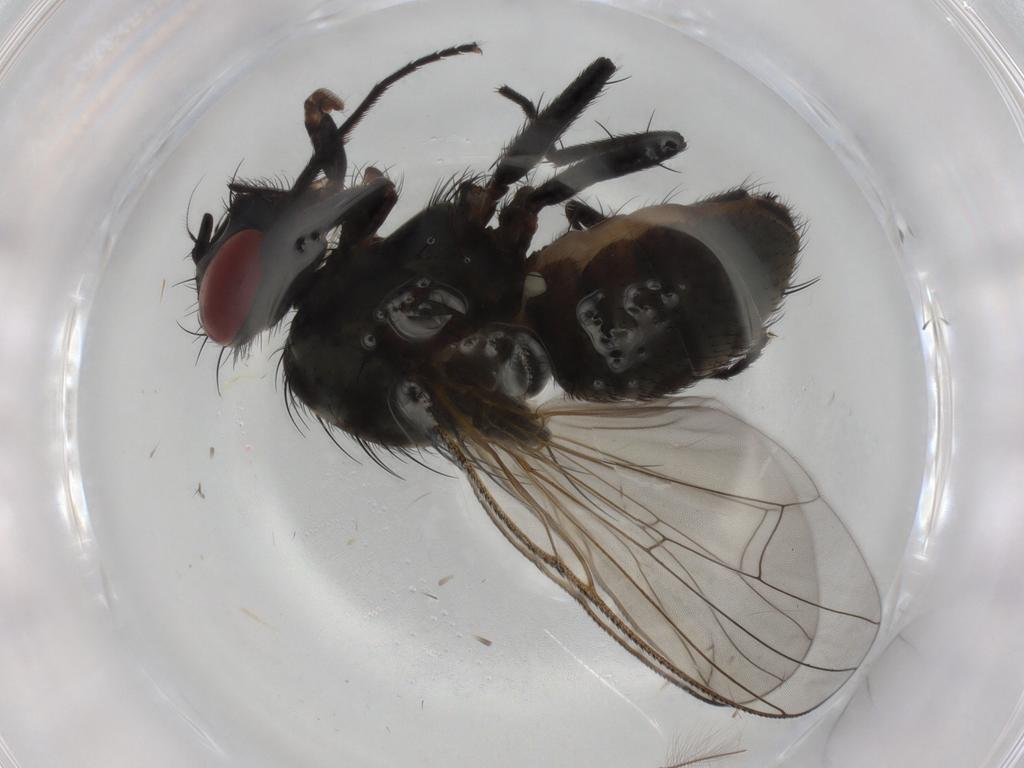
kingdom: Animalia
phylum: Arthropoda
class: Insecta
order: Diptera
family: Muscidae
